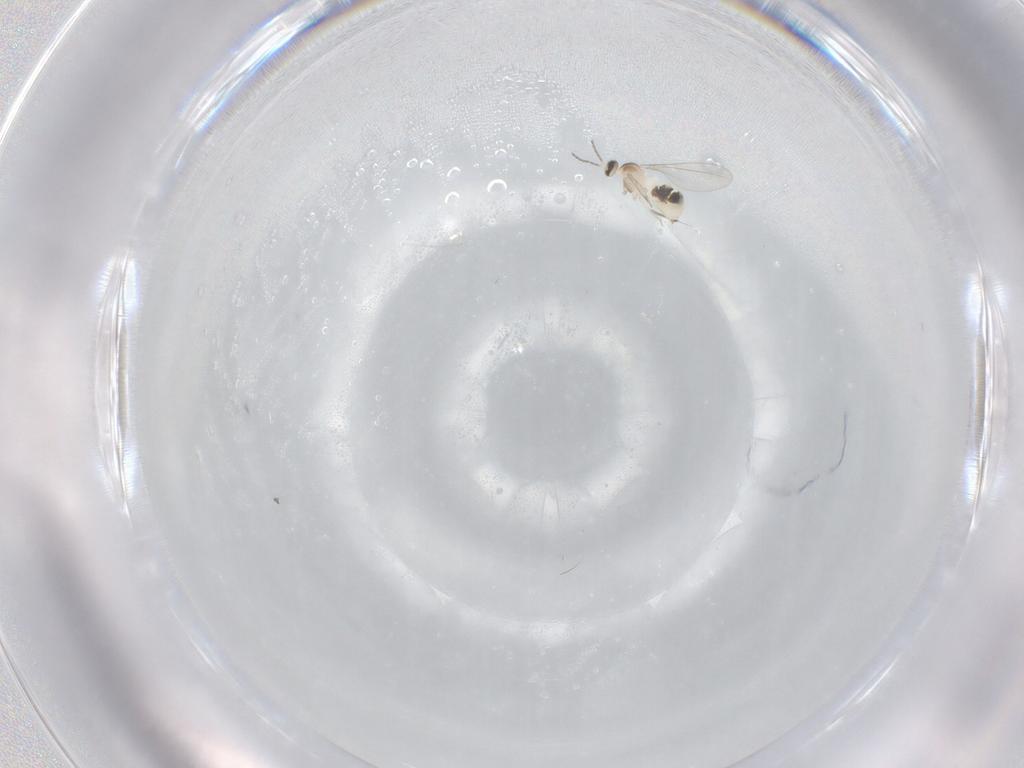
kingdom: Animalia
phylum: Arthropoda
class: Insecta
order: Diptera
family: Cecidomyiidae
